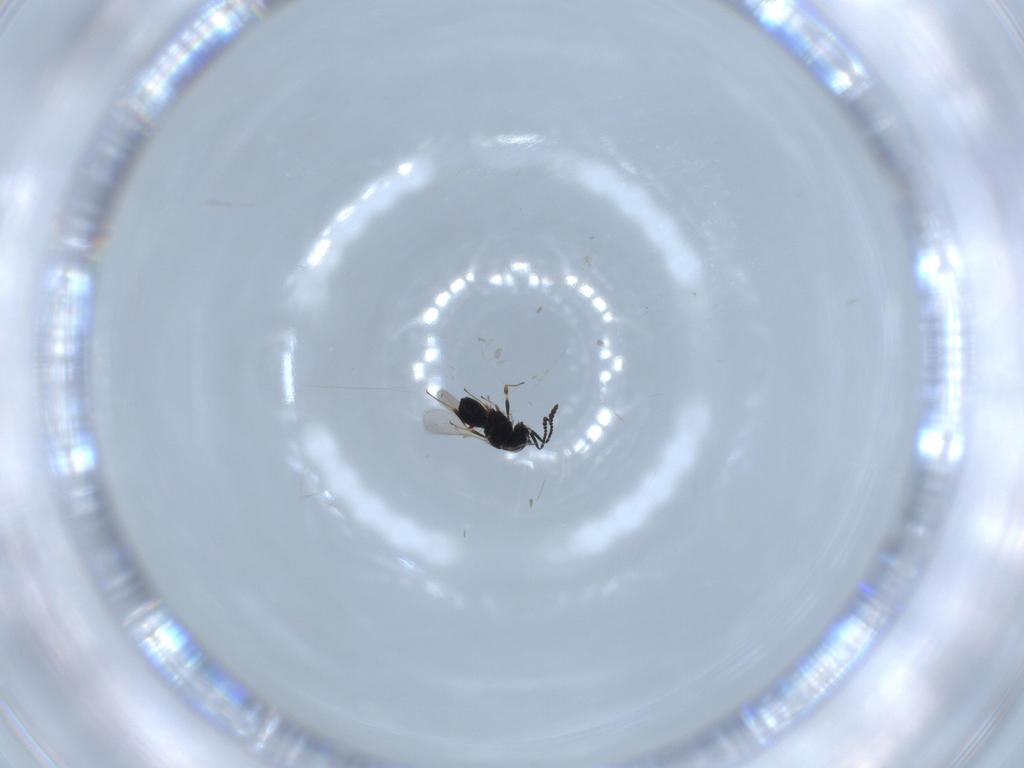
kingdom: Animalia
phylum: Arthropoda
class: Insecta
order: Hymenoptera
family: Scelionidae
